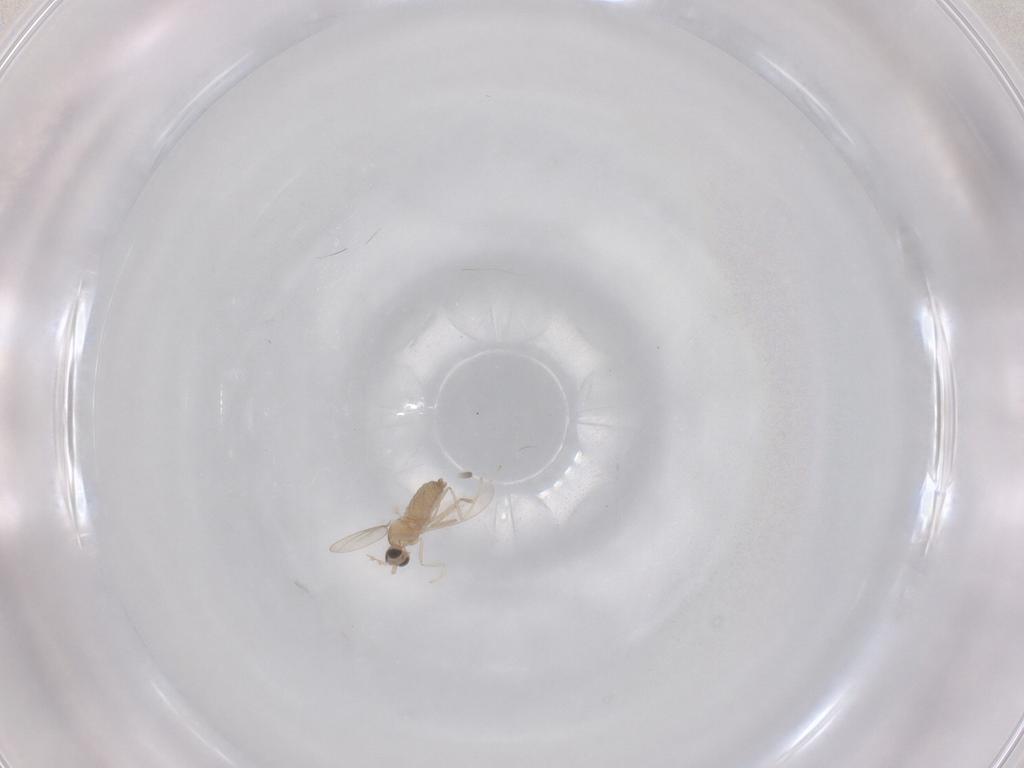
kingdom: Animalia
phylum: Arthropoda
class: Insecta
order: Diptera
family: Cecidomyiidae
